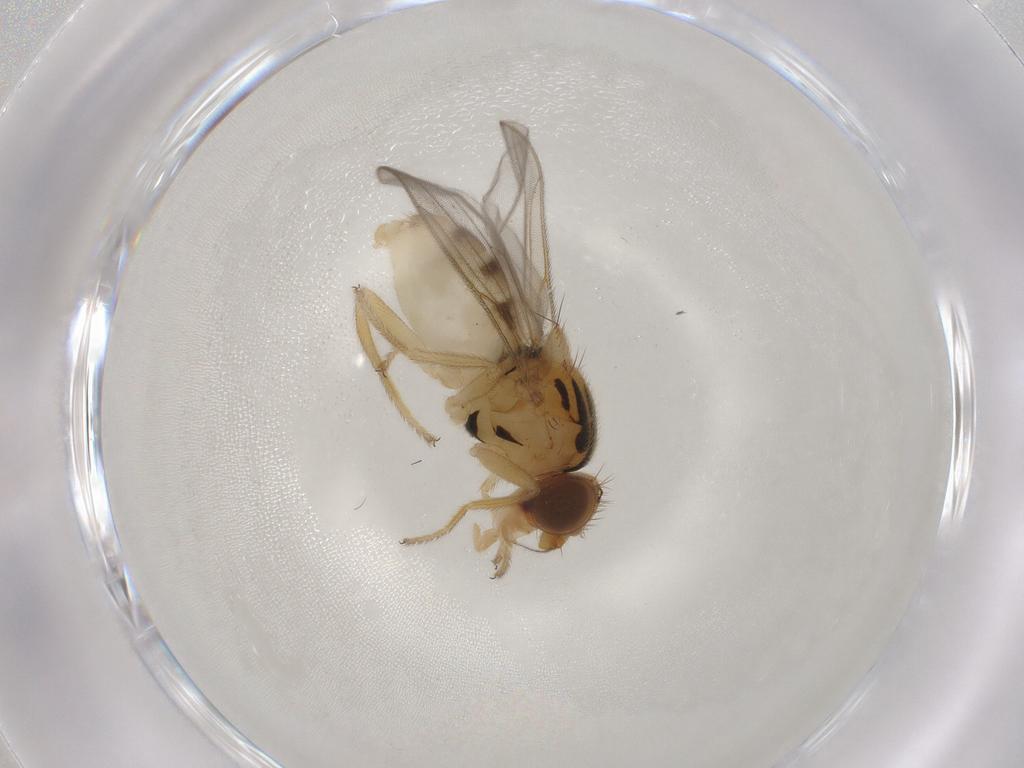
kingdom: Animalia
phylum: Arthropoda
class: Insecta
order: Diptera
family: Chloropidae
